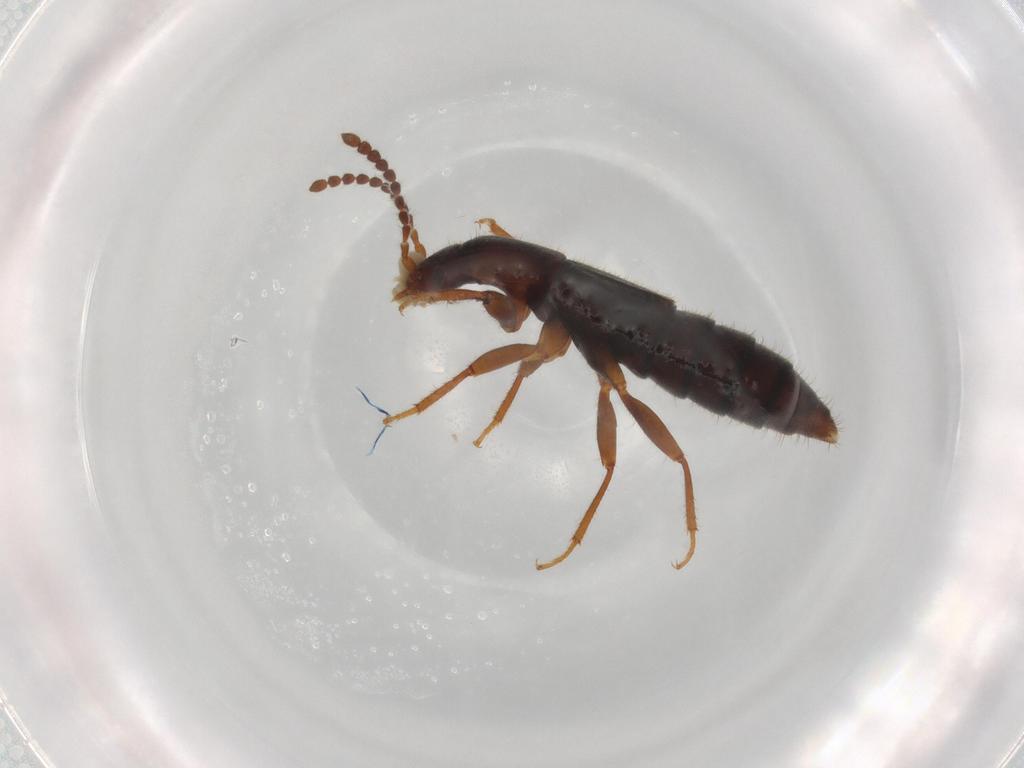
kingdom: Animalia
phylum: Arthropoda
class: Insecta
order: Coleoptera
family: Staphylinidae
